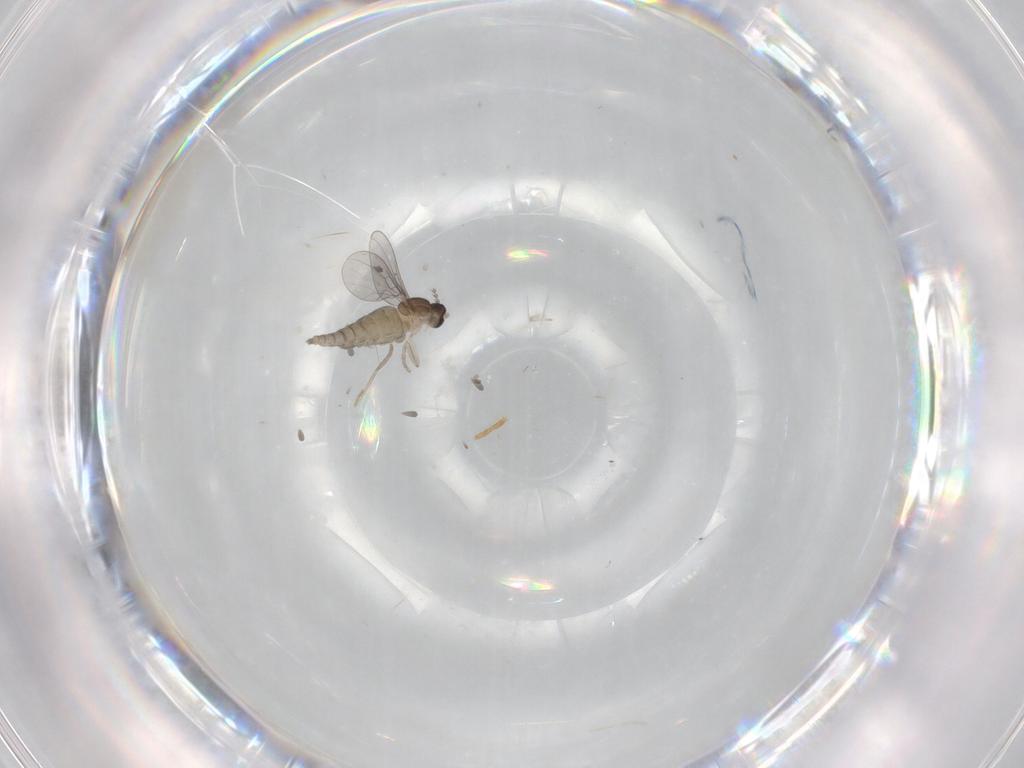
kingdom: Animalia
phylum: Arthropoda
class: Insecta
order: Diptera
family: Cecidomyiidae
